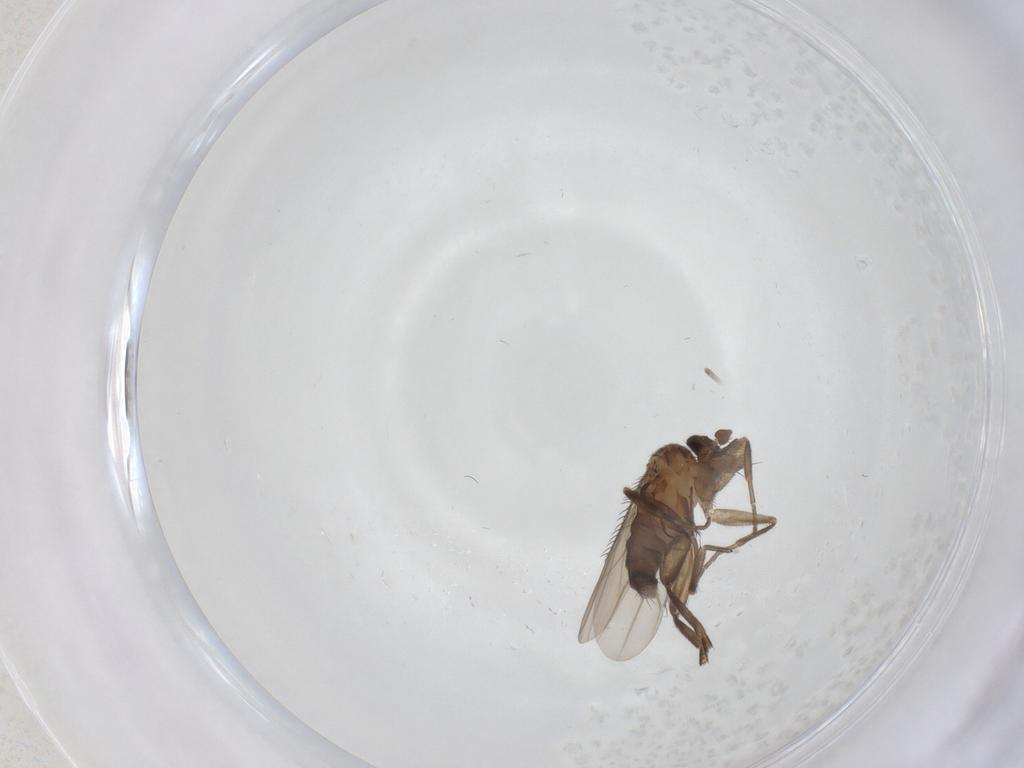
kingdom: Animalia
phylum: Arthropoda
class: Insecta
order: Diptera
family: Phoridae
